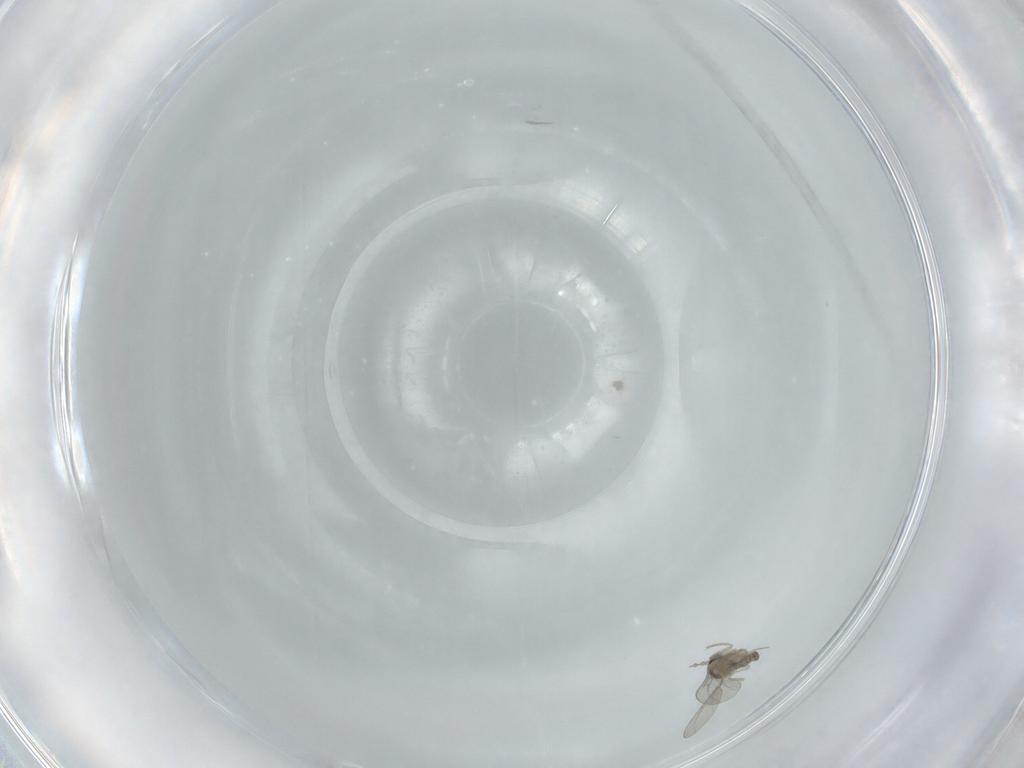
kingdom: Animalia
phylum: Arthropoda
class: Insecta
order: Diptera
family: Cecidomyiidae
